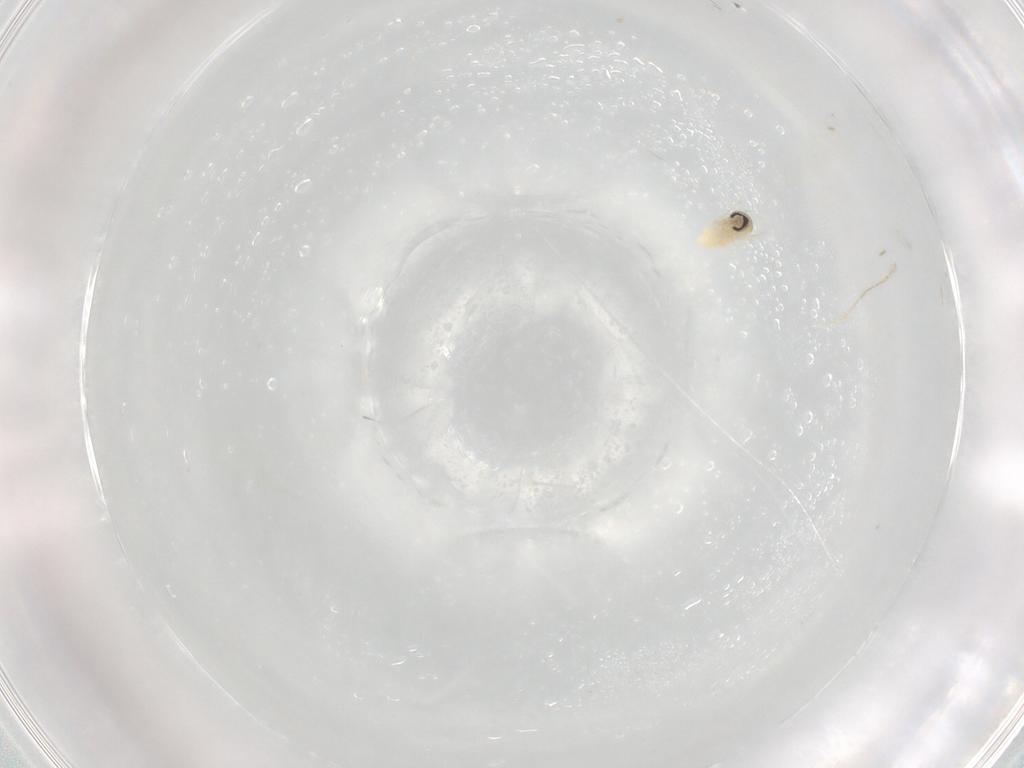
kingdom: Animalia
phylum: Arthropoda
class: Insecta
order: Diptera
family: Cecidomyiidae
